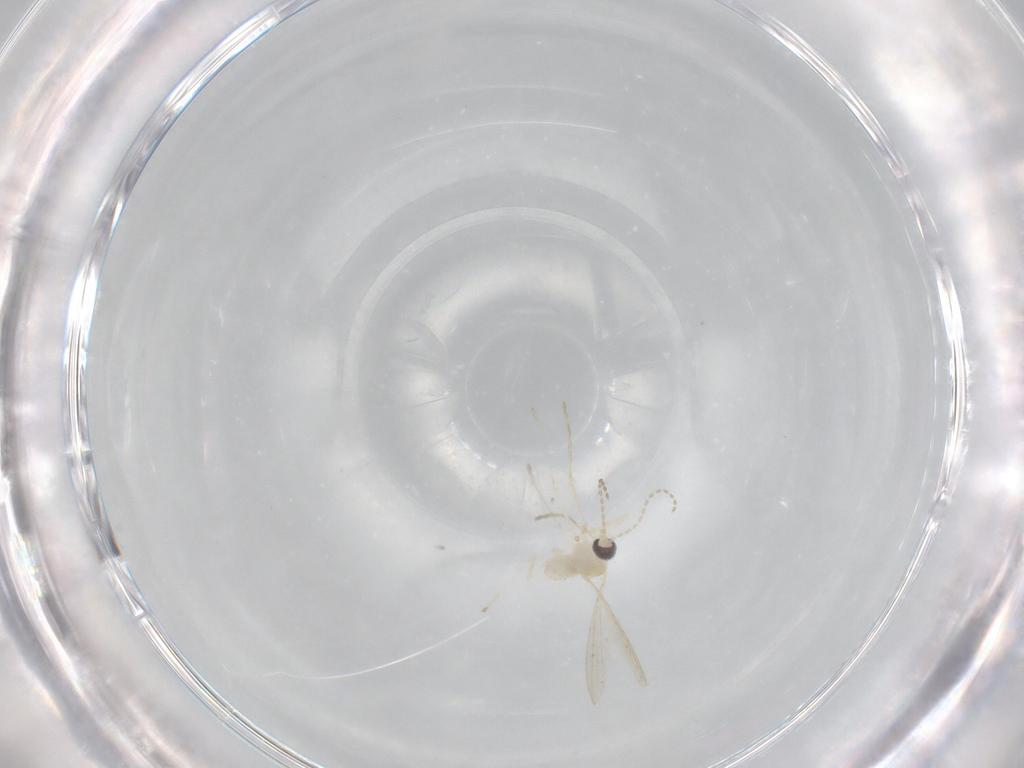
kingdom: Animalia
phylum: Arthropoda
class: Insecta
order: Diptera
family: Cecidomyiidae
